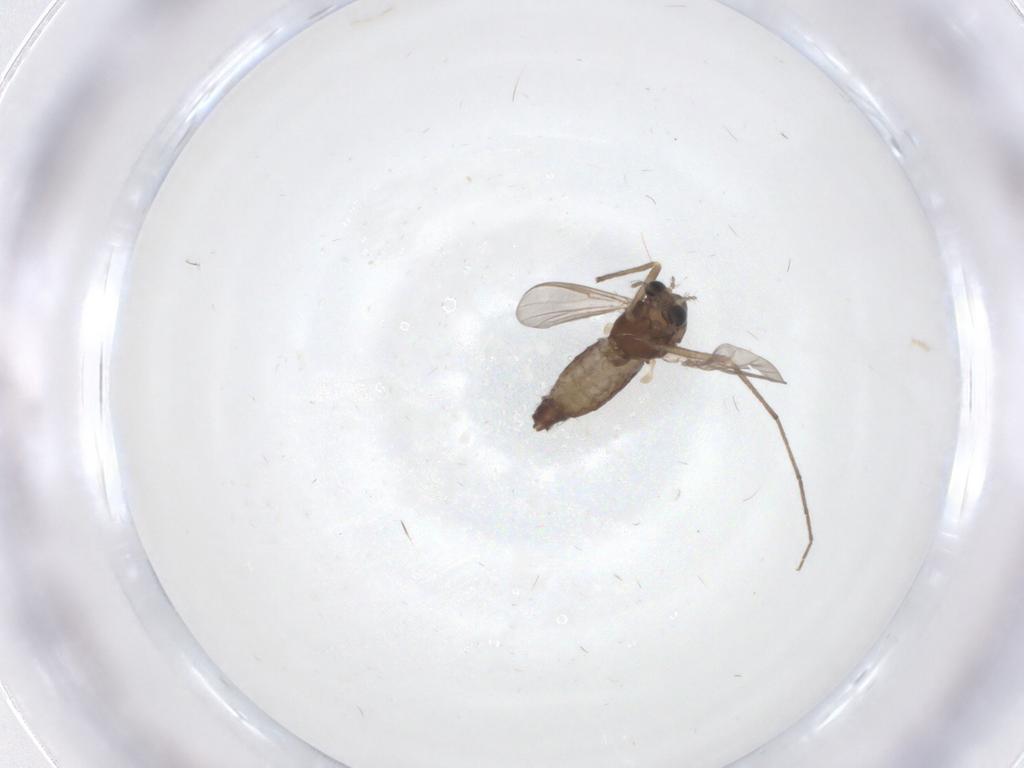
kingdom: Animalia
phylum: Arthropoda
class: Insecta
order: Diptera
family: Chironomidae
